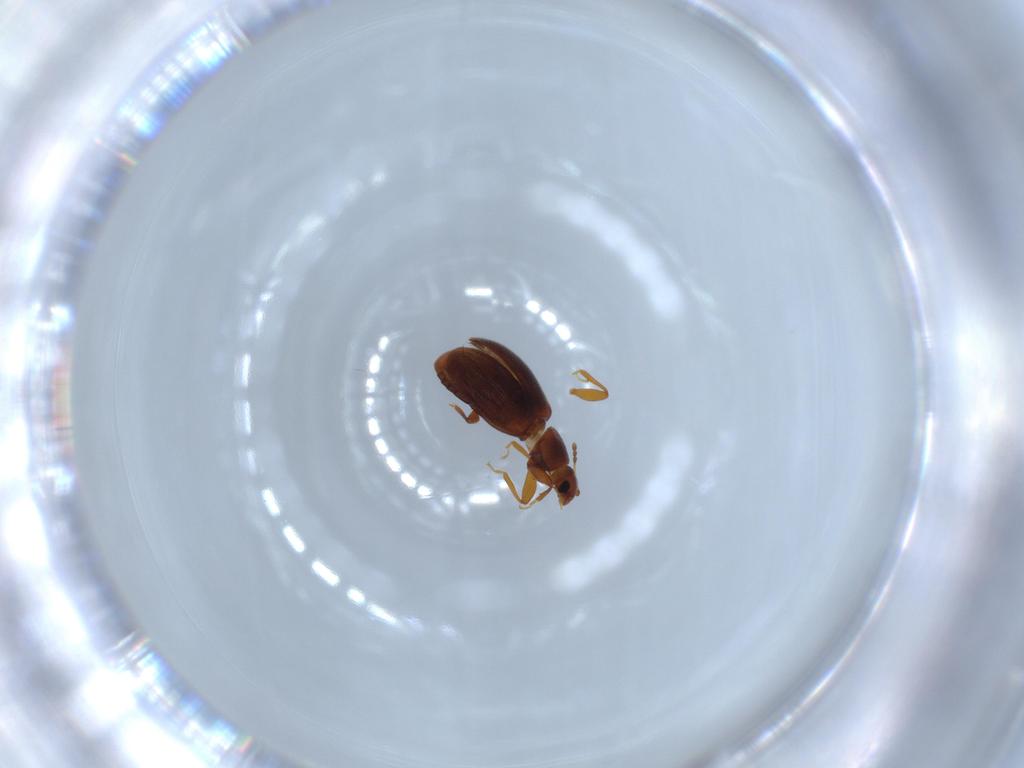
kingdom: Animalia
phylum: Arthropoda
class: Insecta
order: Coleoptera
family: Latridiidae
